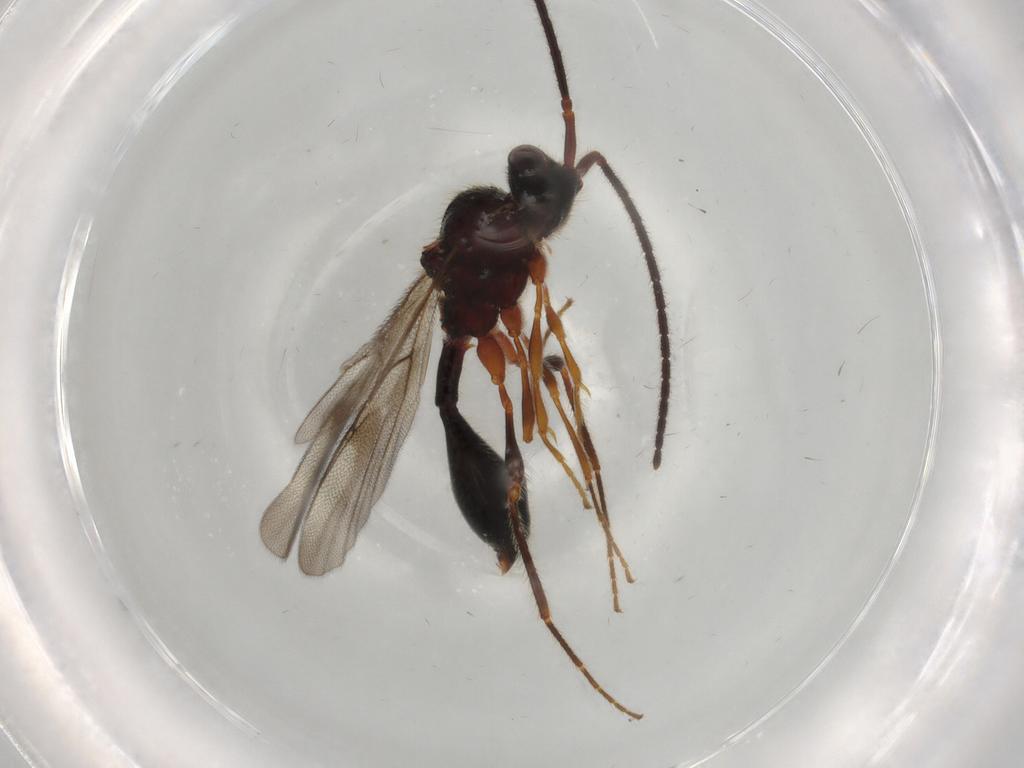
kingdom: Animalia
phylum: Arthropoda
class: Insecta
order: Hymenoptera
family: Diapriidae
